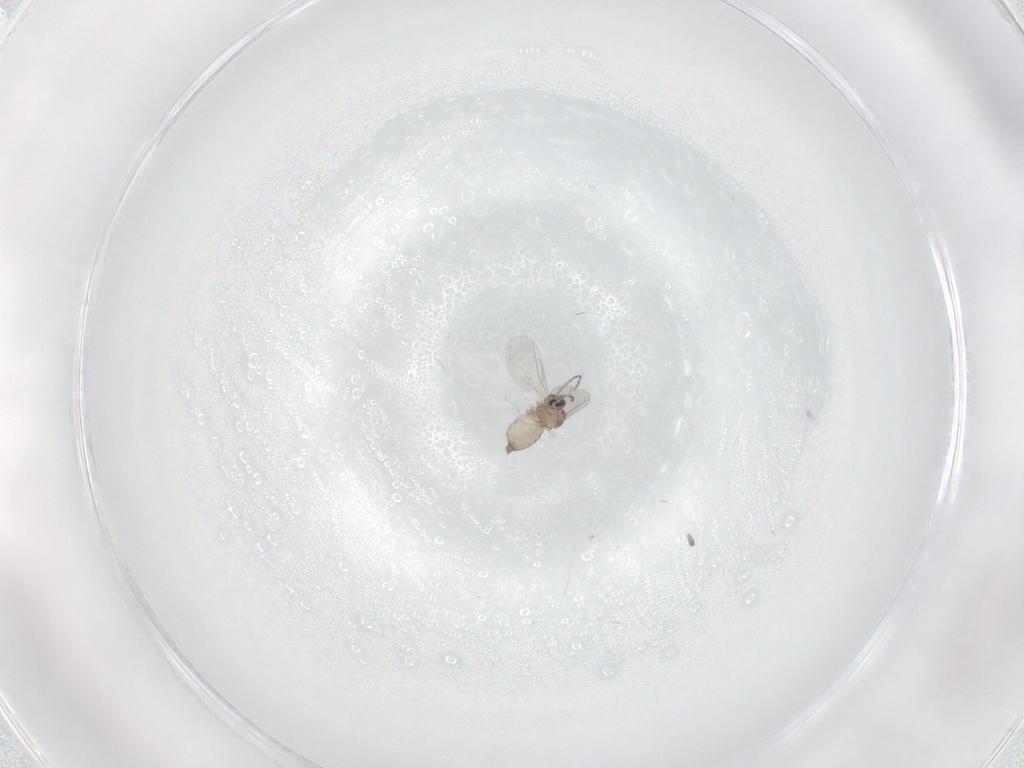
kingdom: Animalia
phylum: Arthropoda
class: Insecta
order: Diptera
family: Cecidomyiidae
